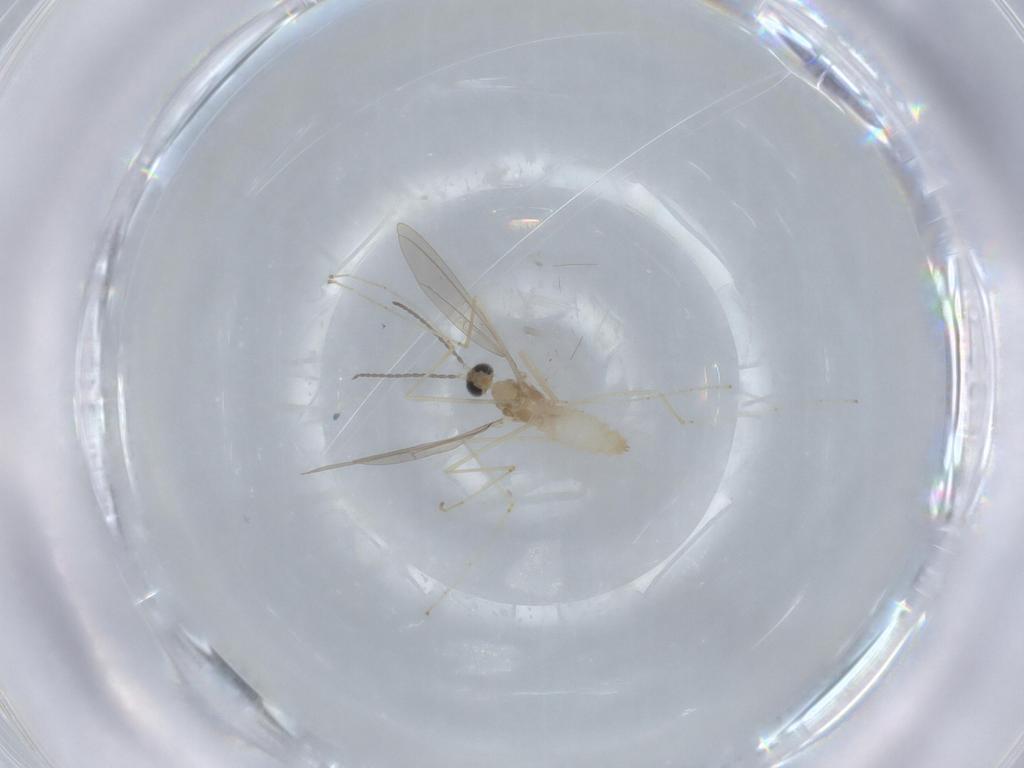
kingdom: Animalia
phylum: Arthropoda
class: Insecta
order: Diptera
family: Cecidomyiidae
